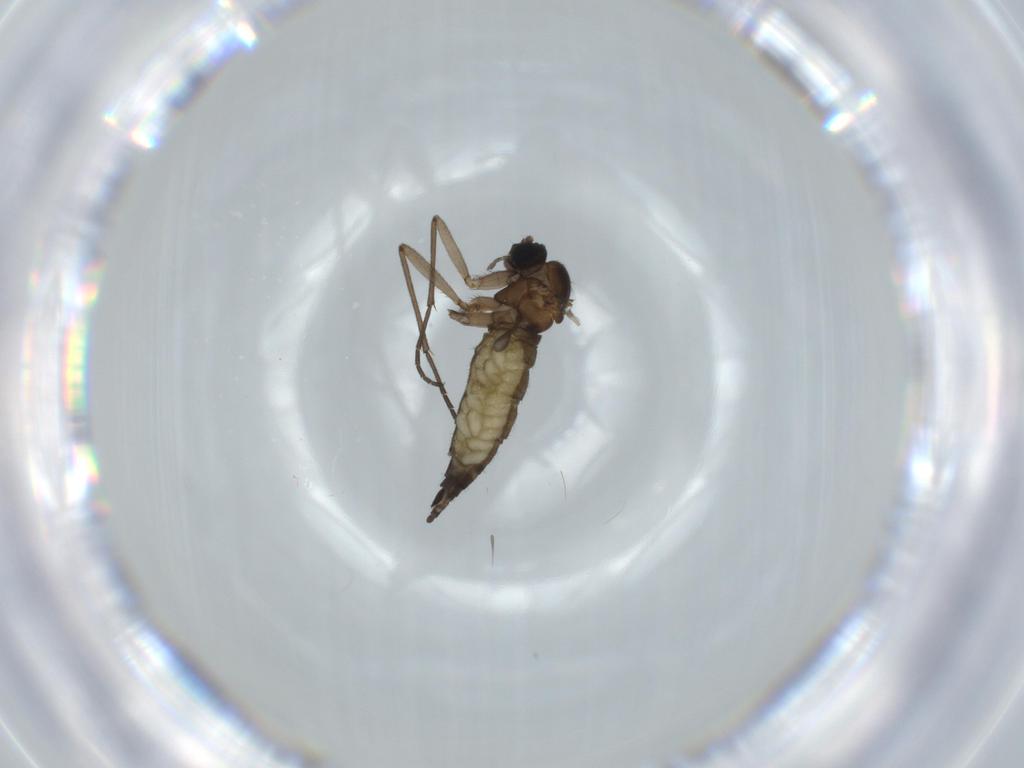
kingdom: Animalia
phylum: Arthropoda
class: Insecta
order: Diptera
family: Sciaridae
